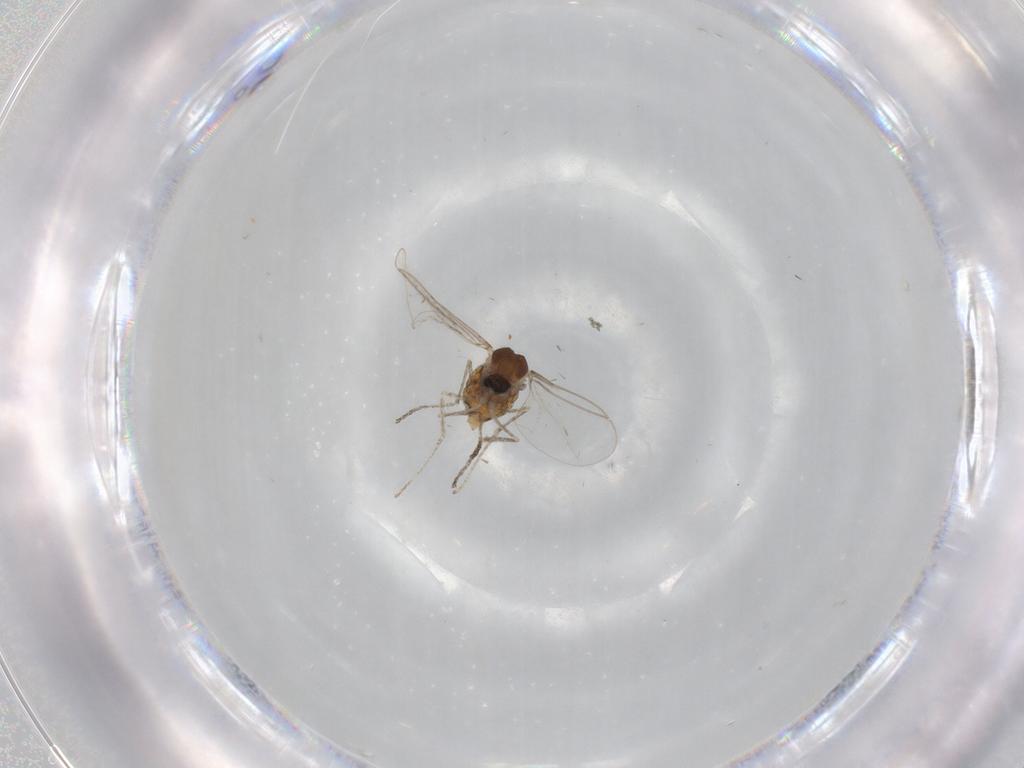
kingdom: Animalia
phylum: Arthropoda
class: Insecta
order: Diptera
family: Cecidomyiidae
